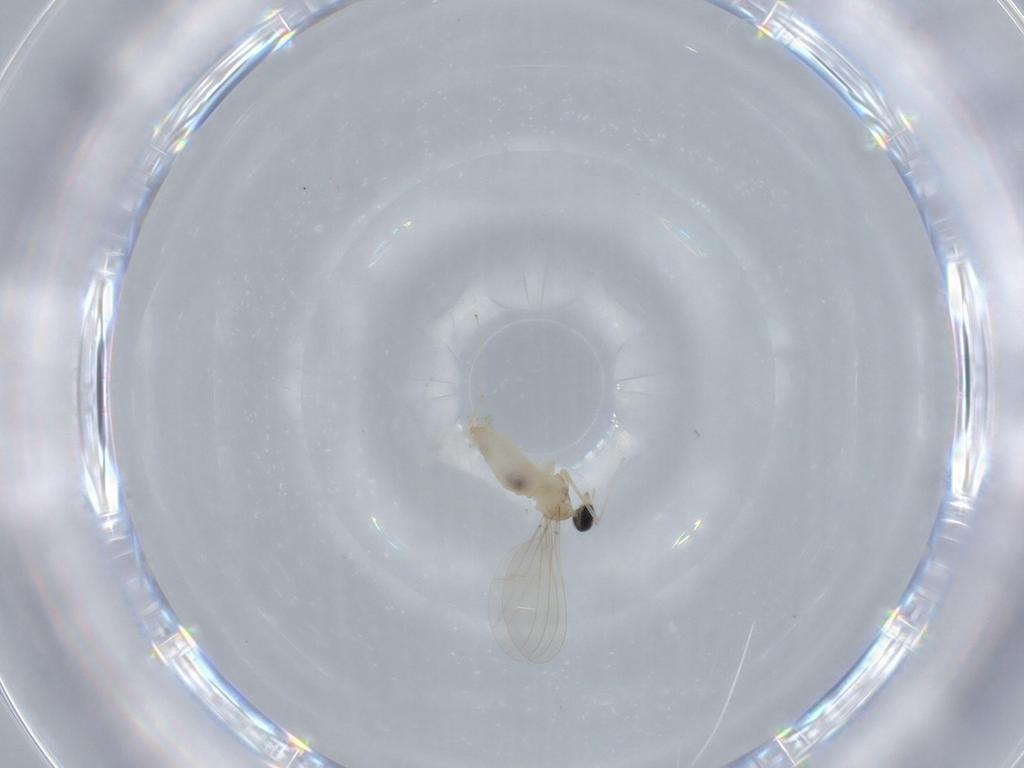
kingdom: Animalia
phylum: Arthropoda
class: Insecta
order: Diptera
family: Cecidomyiidae
